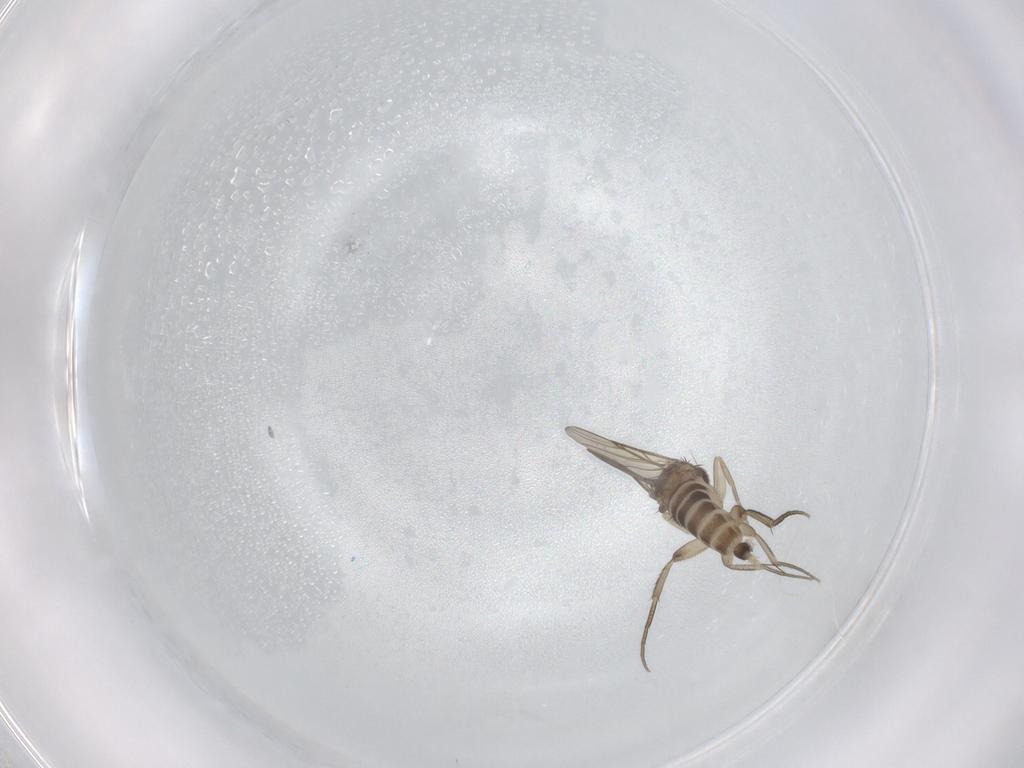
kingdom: Animalia
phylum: Arthropoda
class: Insecta
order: Diptera
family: Phoridae
